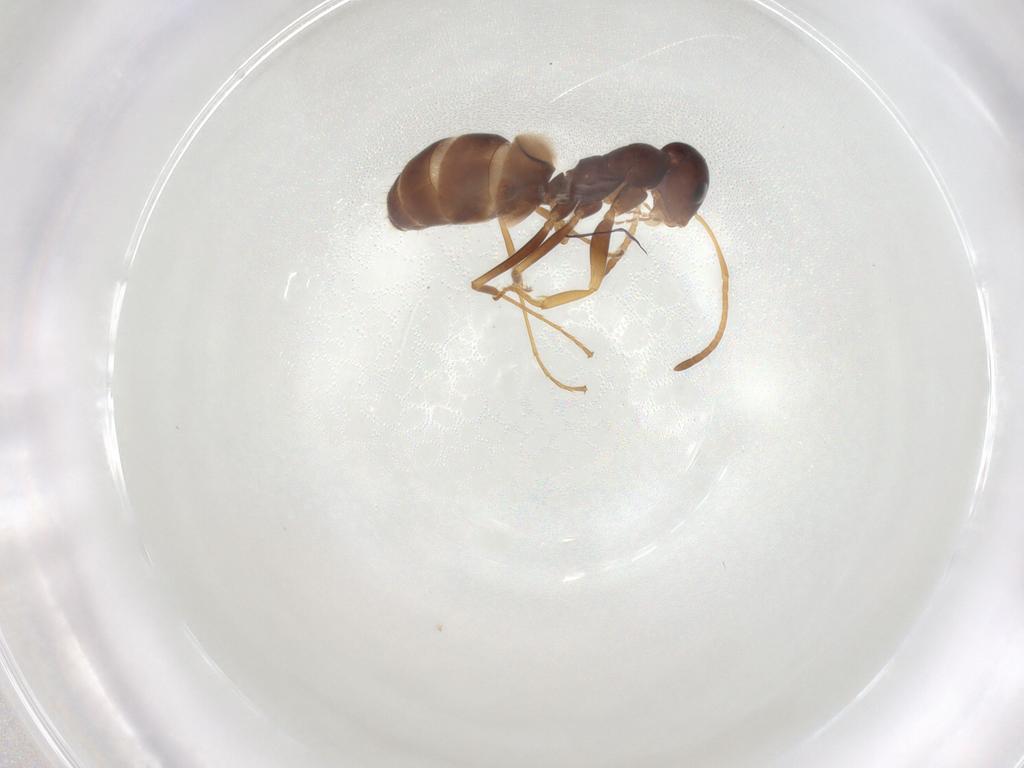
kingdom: Animalia
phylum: Arthropoda
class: Insecta
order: Hymenoptera
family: Formicidae
